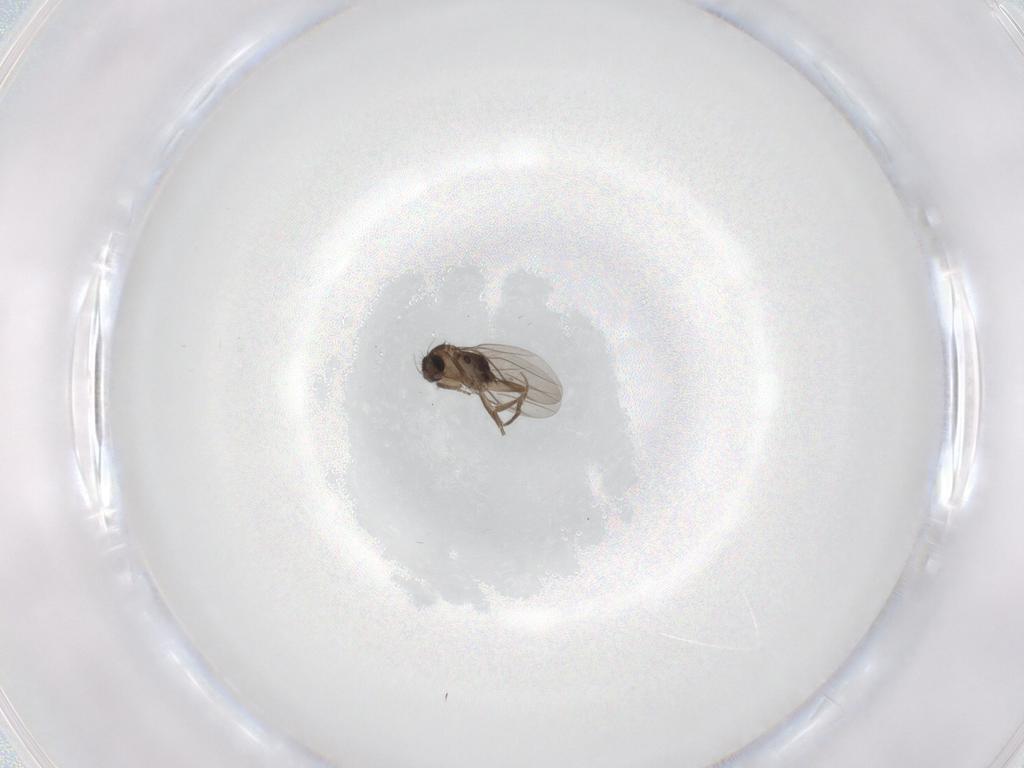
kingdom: Animalia
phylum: Arthropoda
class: Insecta
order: Diptera
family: Phoridae
